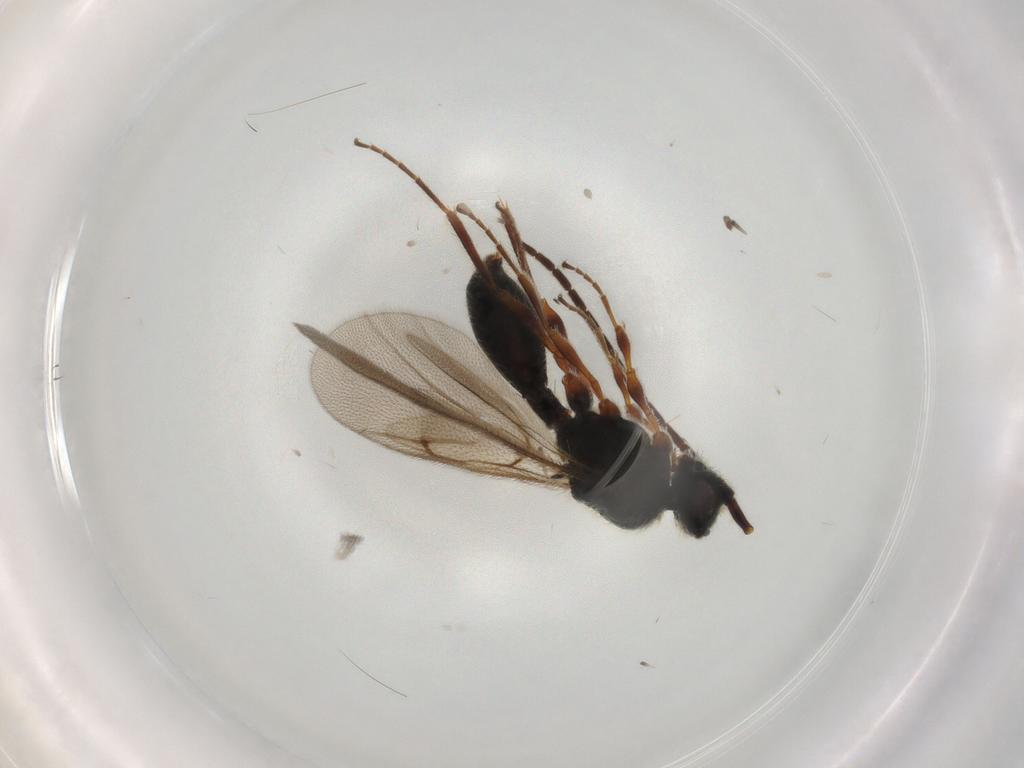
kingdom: Animalia
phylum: Arthropoda
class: Insecta
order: Hymenoptera
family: Diapriidae
